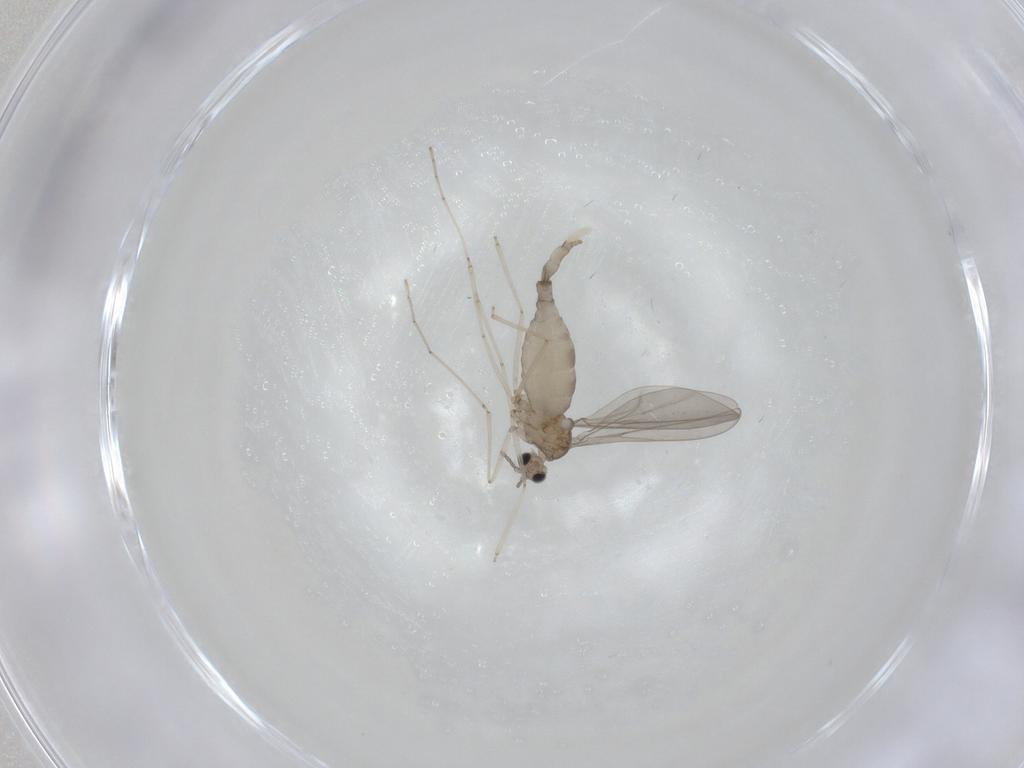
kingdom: Animalia
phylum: Arthropoda
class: Insecta
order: Diptera
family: Cecidomyiidae
